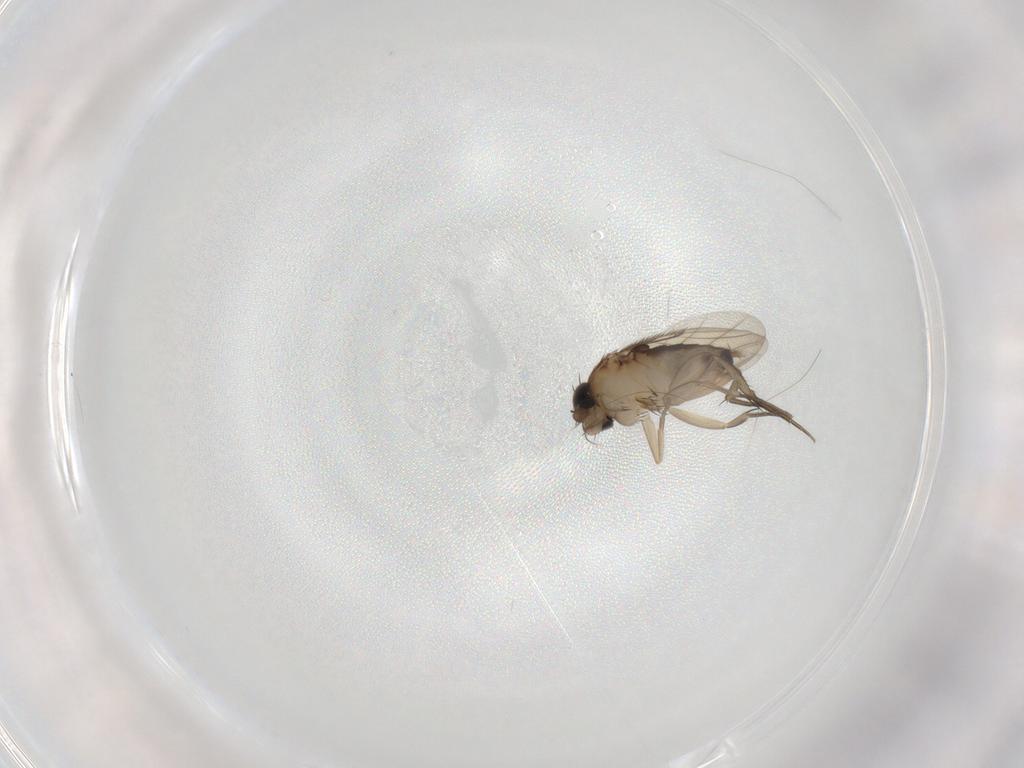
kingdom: Animalia
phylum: Arthropoda
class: Insecta
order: Diptera
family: Phoridae
